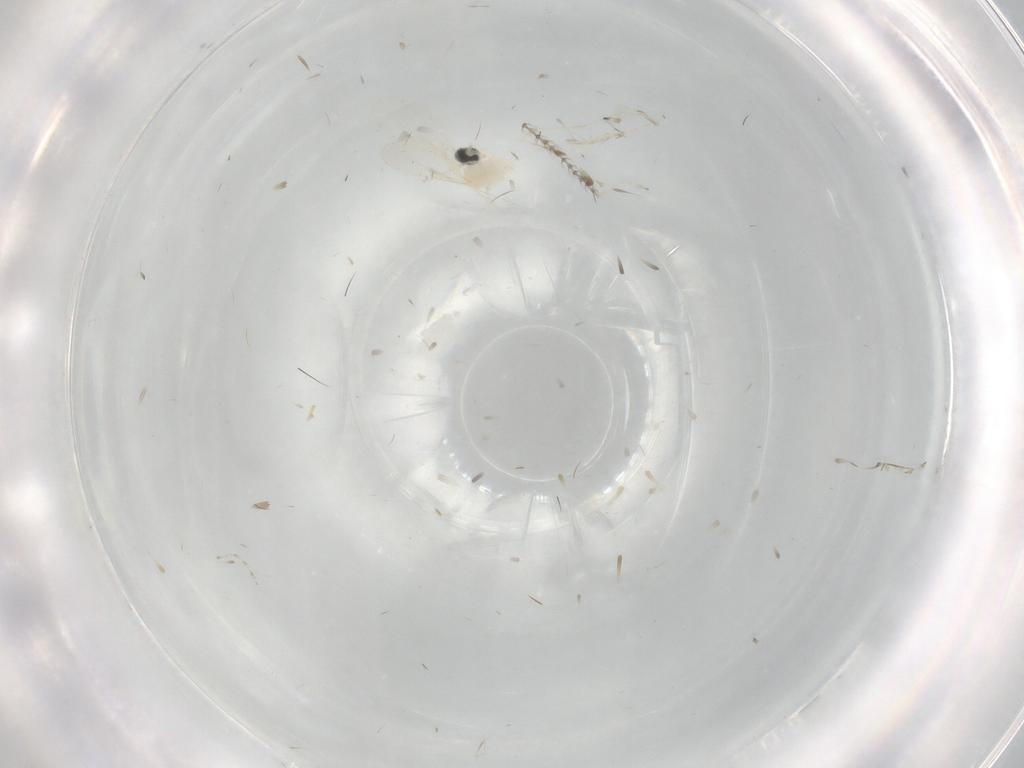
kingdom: Animalia
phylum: Arthropoda
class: Insecta
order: Diptera
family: Cecidomyiidae
